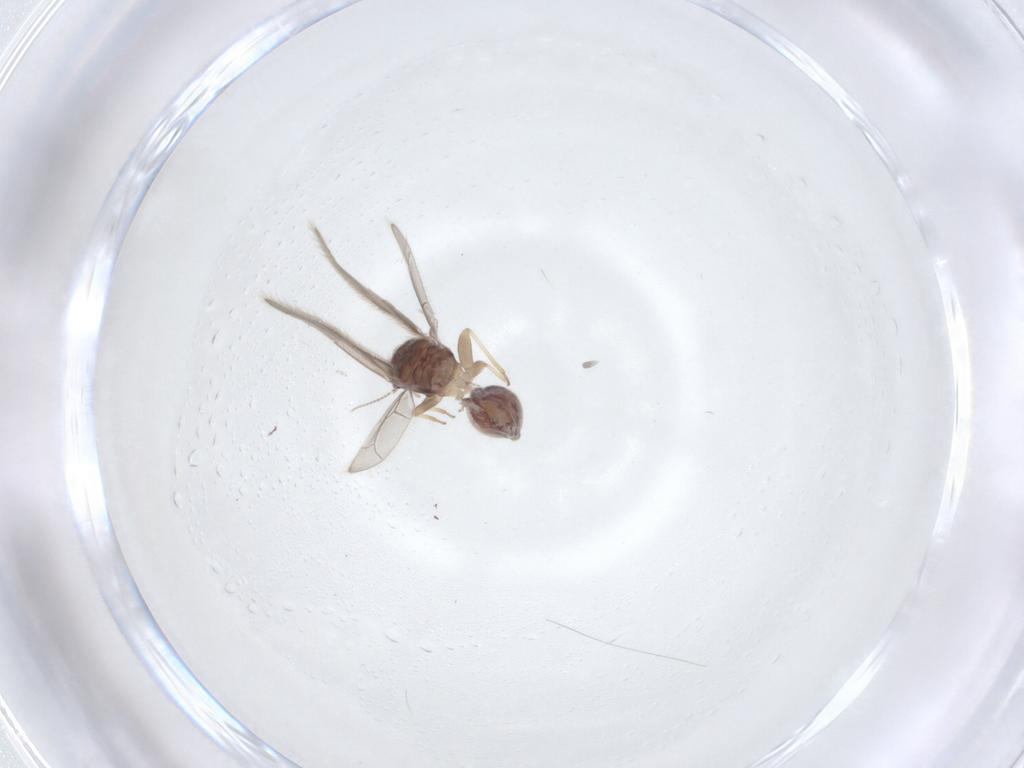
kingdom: Animalia
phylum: Arthropoda
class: Insecta
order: Psocodea
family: Archipsocidae
